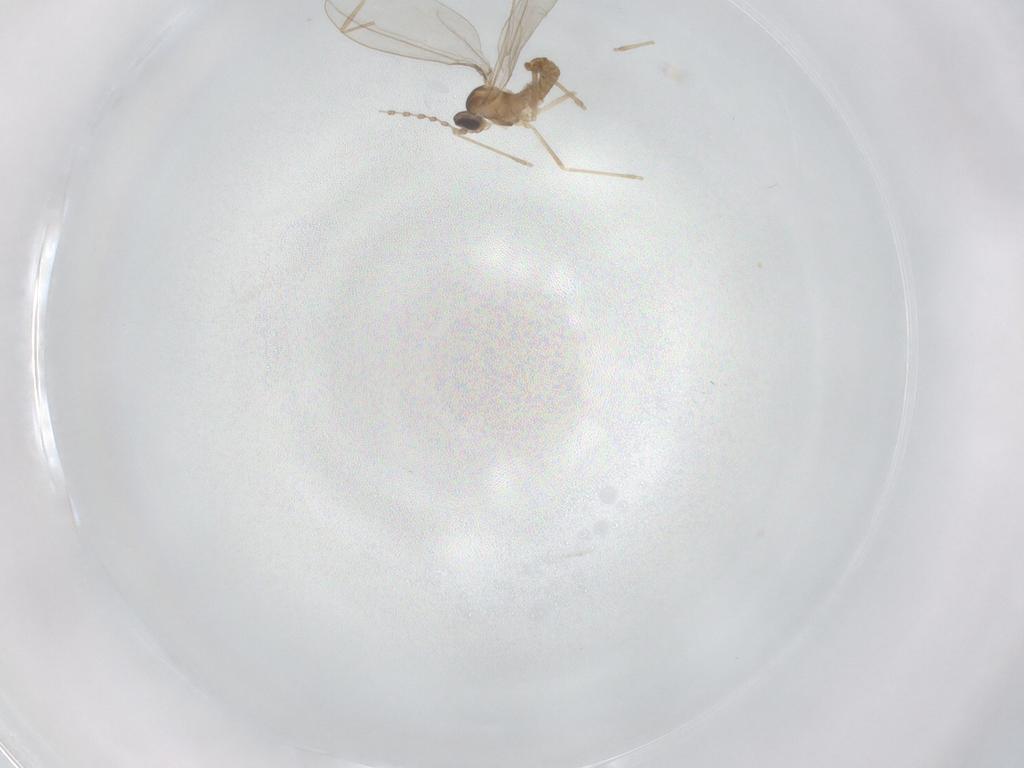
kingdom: Animalia
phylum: Arthropoda
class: Insecta
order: Diptera
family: Cecidomyiidae
